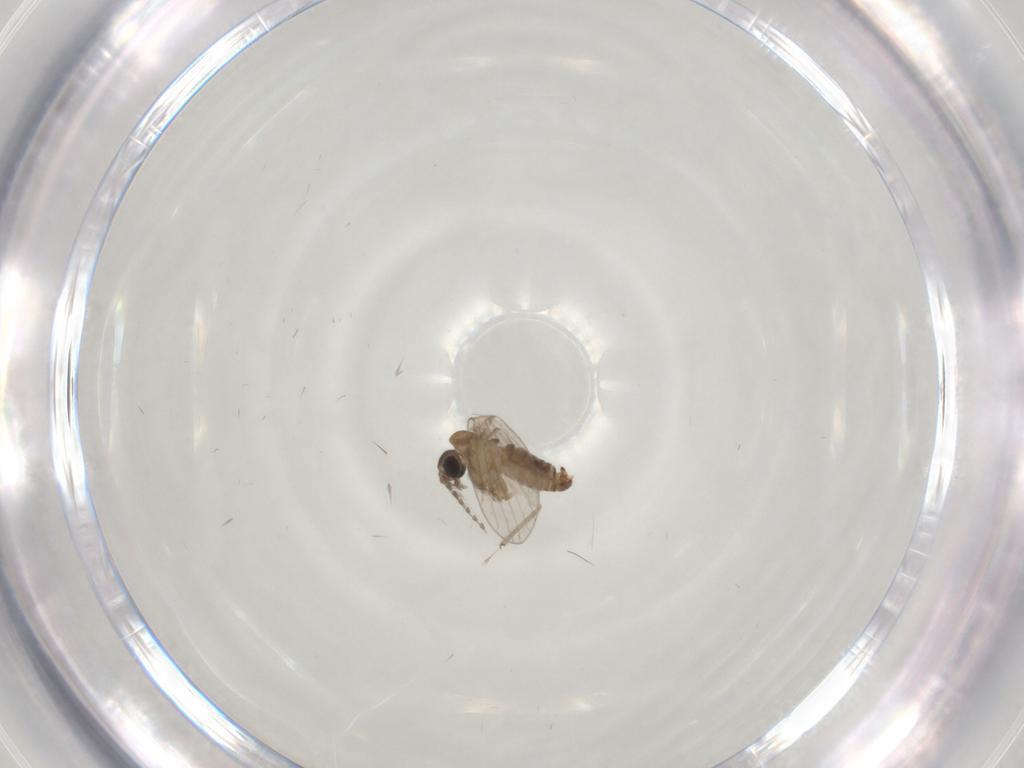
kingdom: Animalia
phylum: Arthropoda
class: Insecta
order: Diptera
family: Chironomidae
